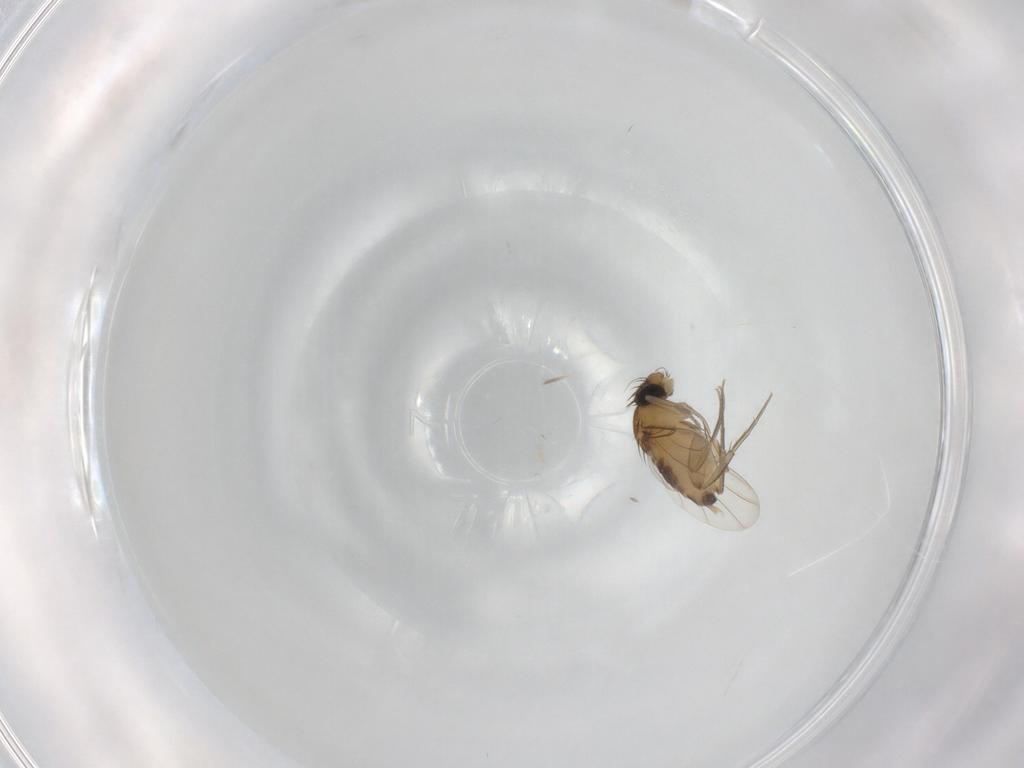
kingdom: Animalia
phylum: Arthropoda
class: Insecta
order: Diptera
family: Phoridae
